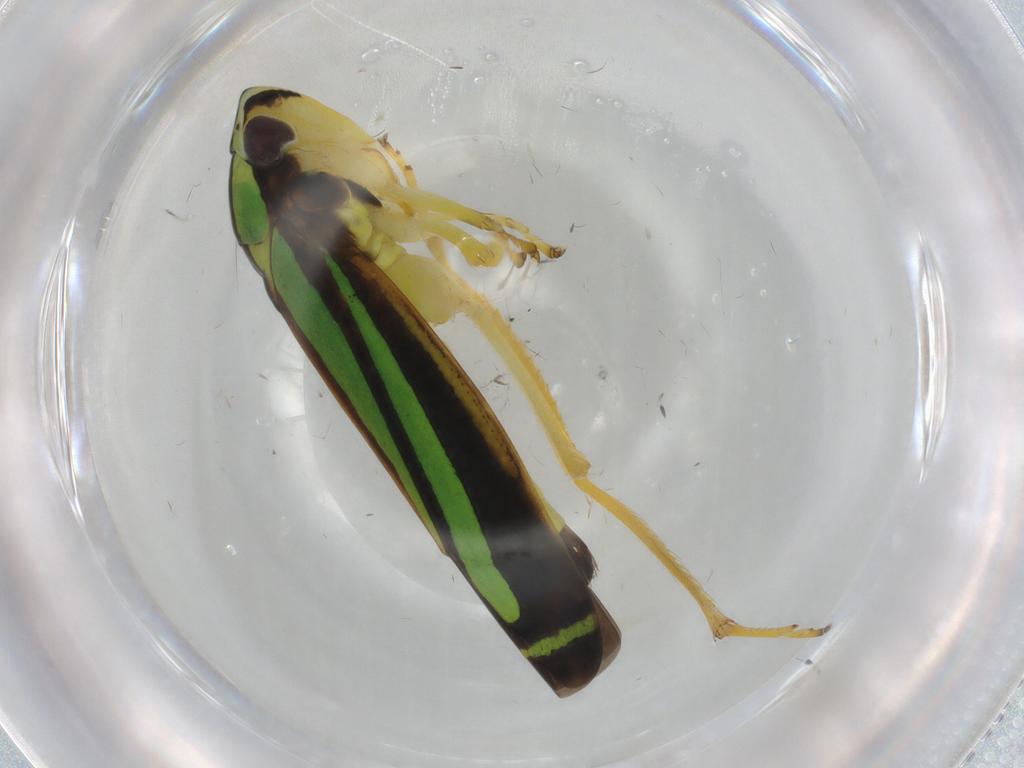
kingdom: Animalia
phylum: Arthropoda
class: Insecta
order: Hemiptera
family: Cicadellidae
